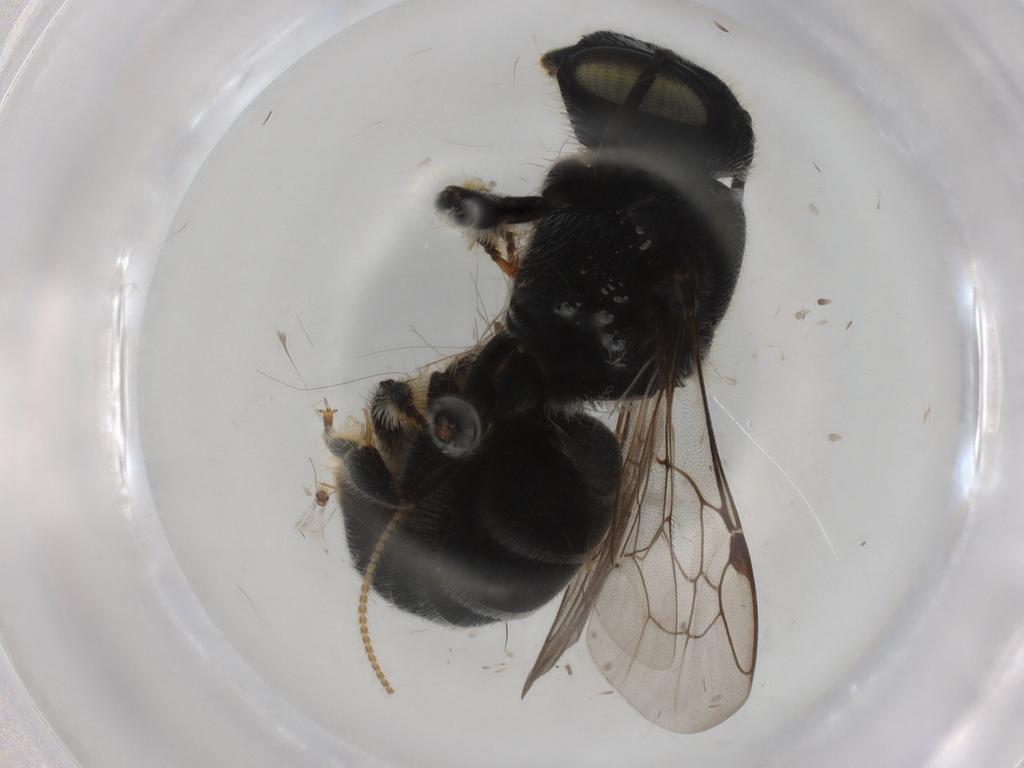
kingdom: Animalia
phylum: Arthropoda
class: Insecta
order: Hymenoptera
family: Megachilidae
